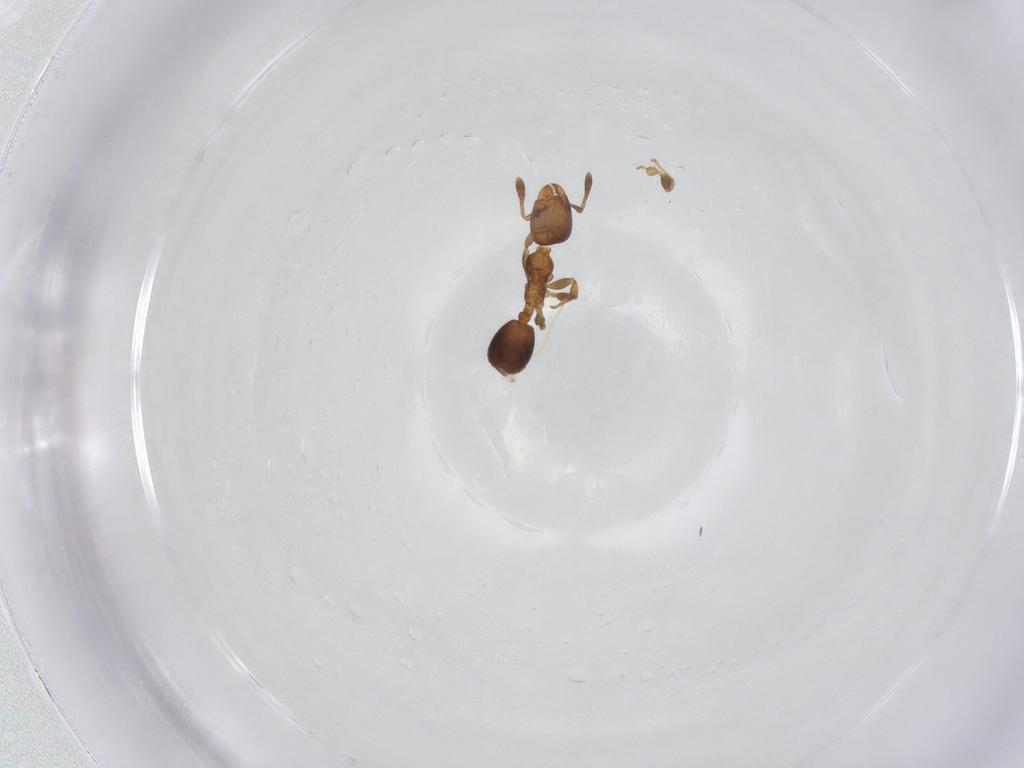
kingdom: Animalia
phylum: Arthropoda
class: Insecta
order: Hymenoptera
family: Formicidae
